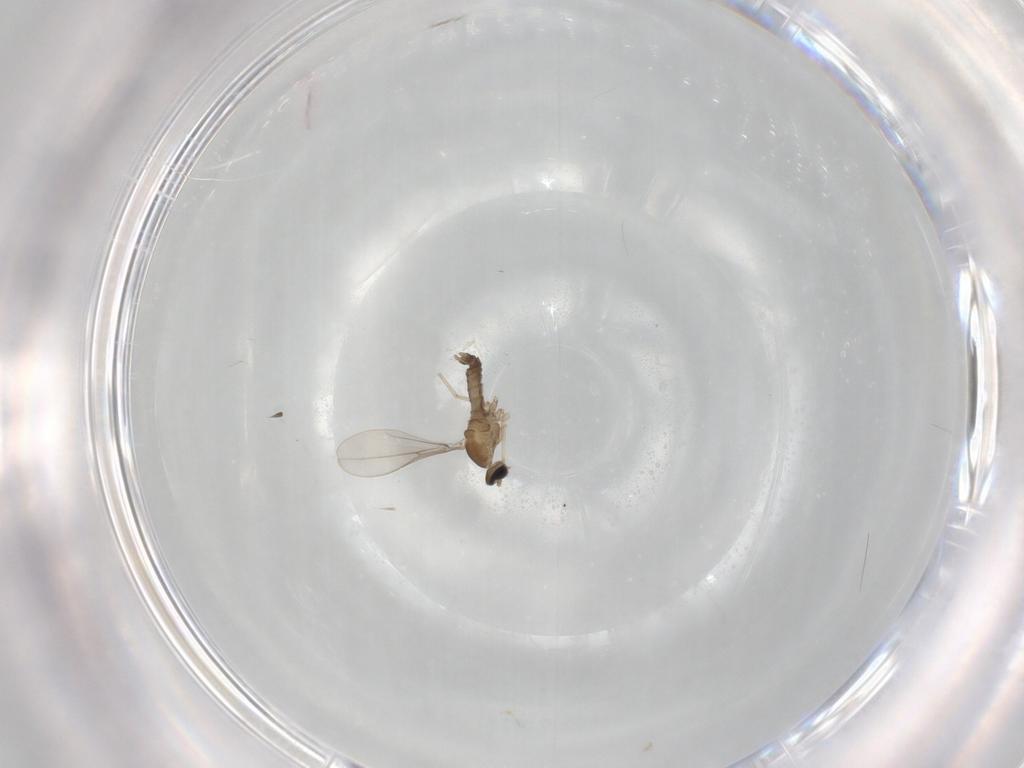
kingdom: Animalia
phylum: Arthropoda
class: Insecta
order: Diptera
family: Cecidomyiidae
